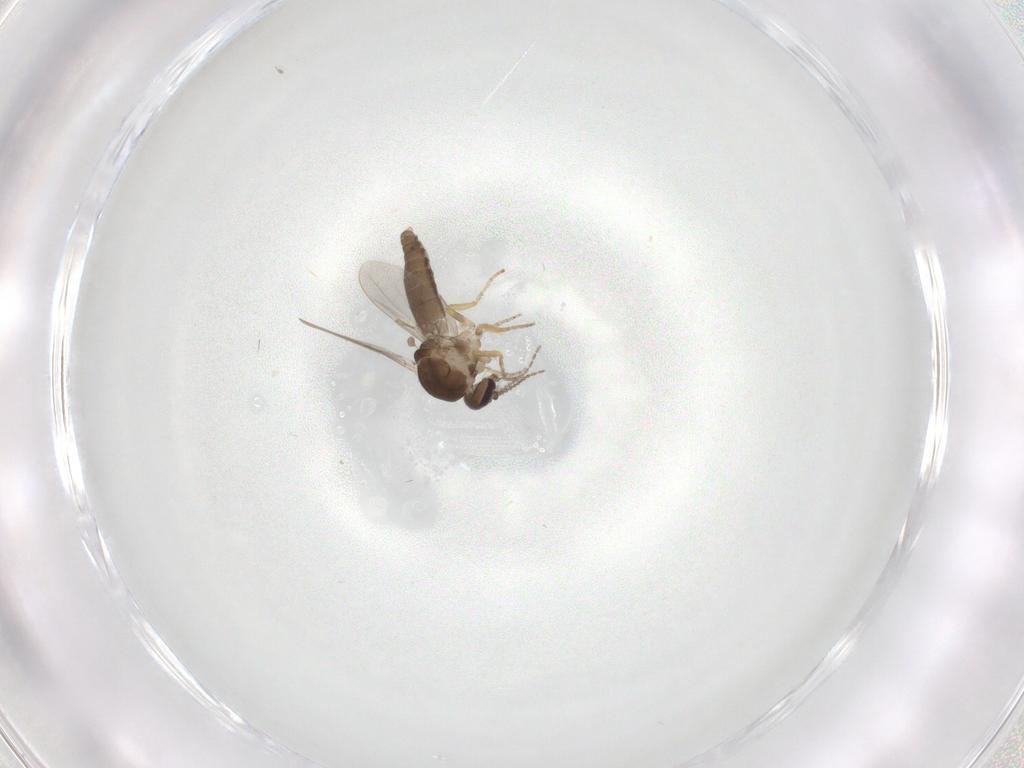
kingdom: Animalia
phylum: Arthropoda
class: Insecta
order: Diptera
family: Ceratopogonidae
